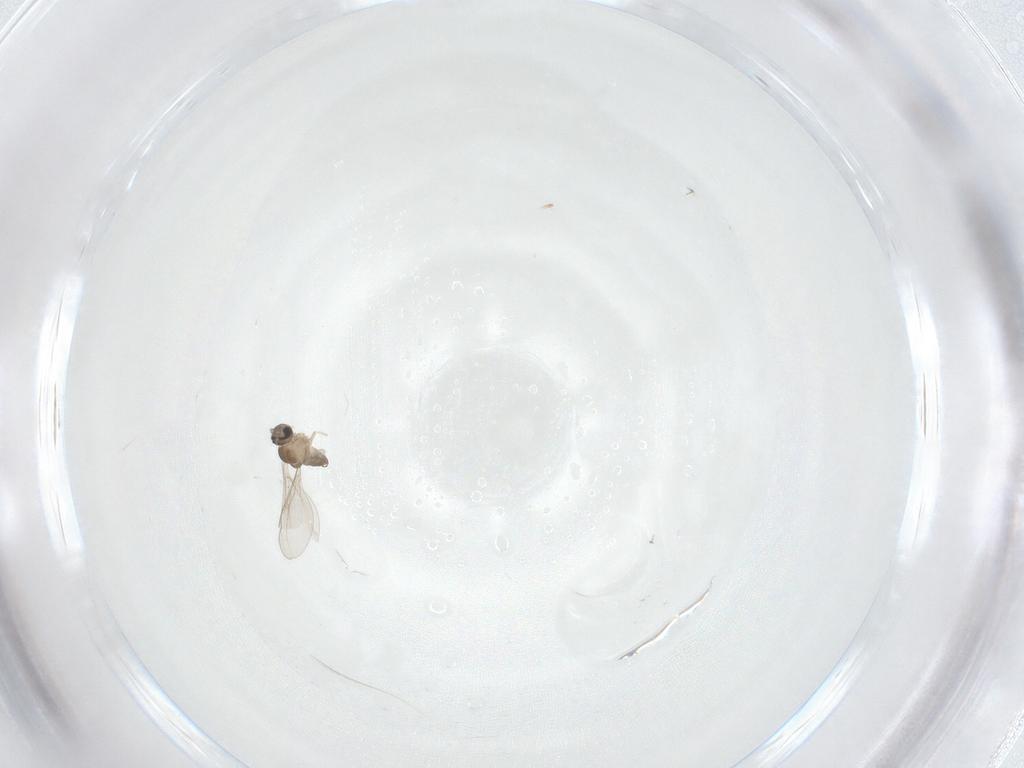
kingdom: Animalia
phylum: Arthropoda
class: Insecta
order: Diptera
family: Cecidomyiidae
